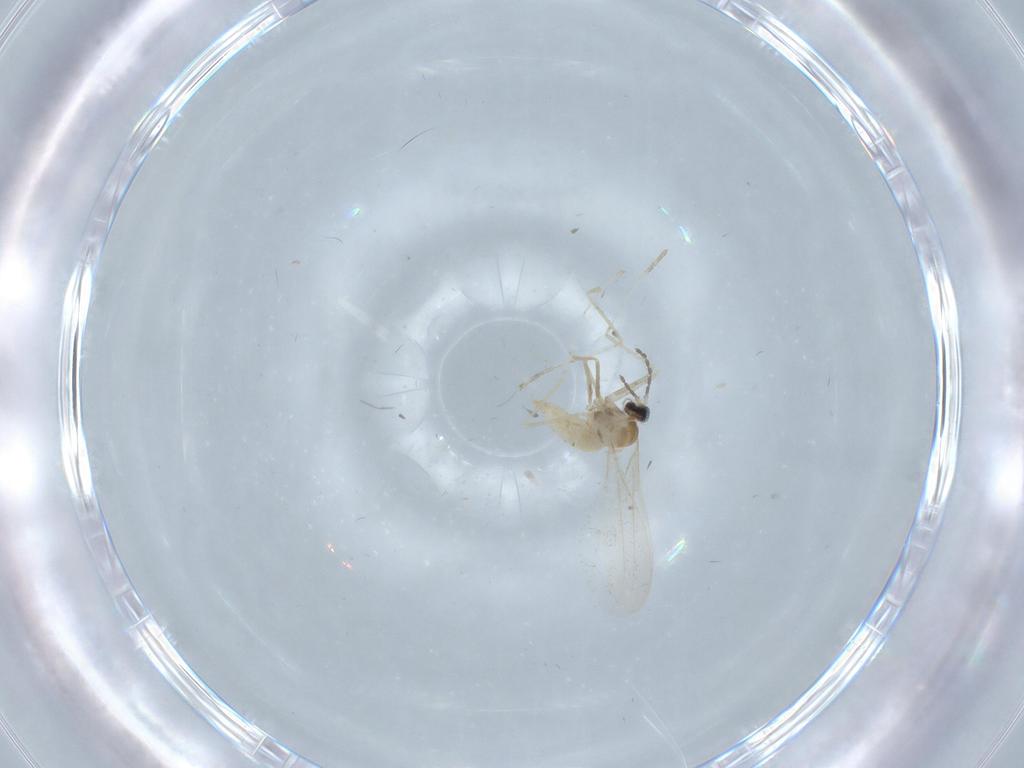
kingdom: Animalia
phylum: Arthropoda
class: Insecta
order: Diptera
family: Cecidomyiidae
